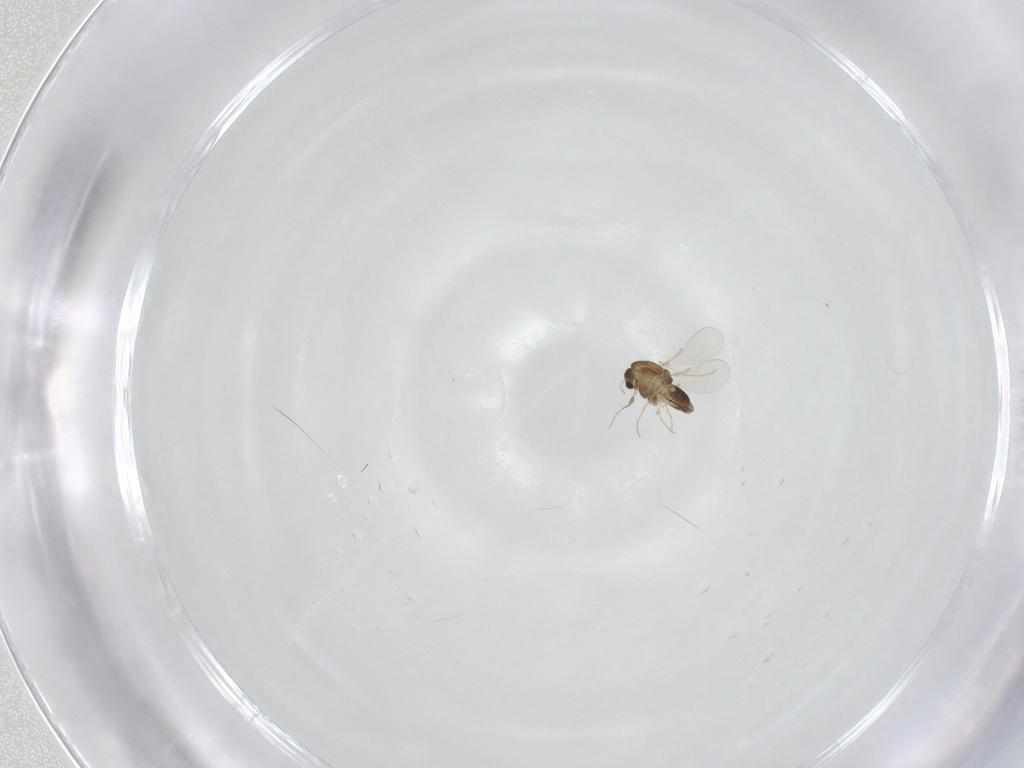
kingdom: Animalia
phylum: Arthropoda
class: Insecta
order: Diptera
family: Chironomidae
